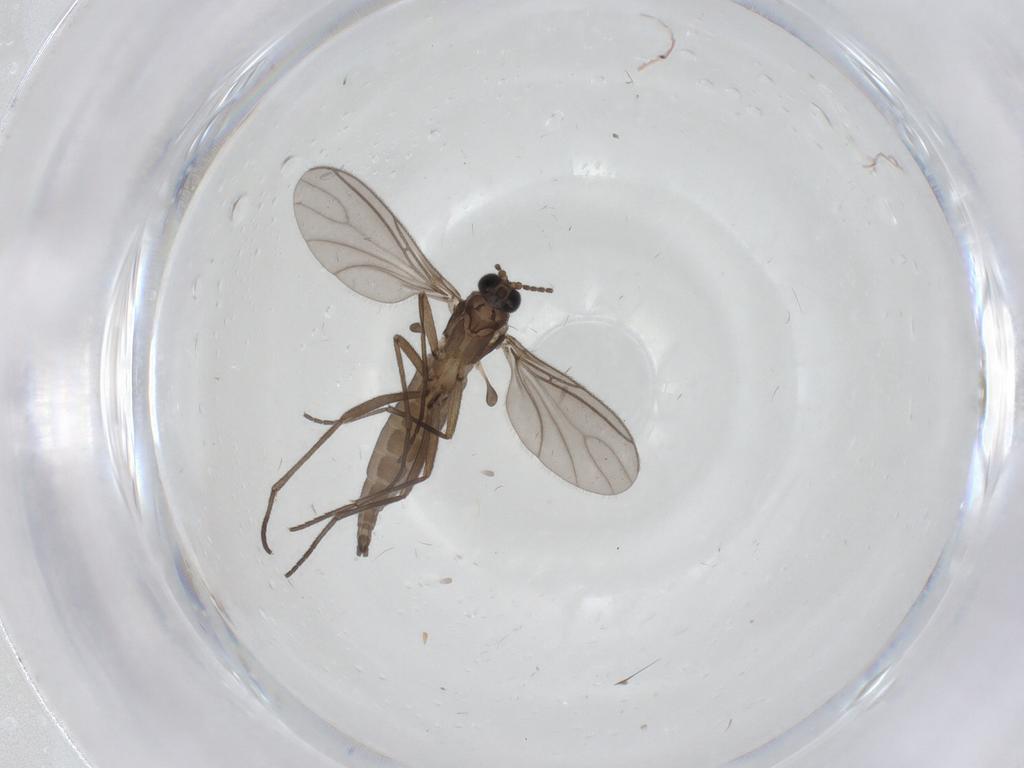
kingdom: Animalia
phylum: Arthropoda
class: Insecta
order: Diptera
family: Sciaridae
